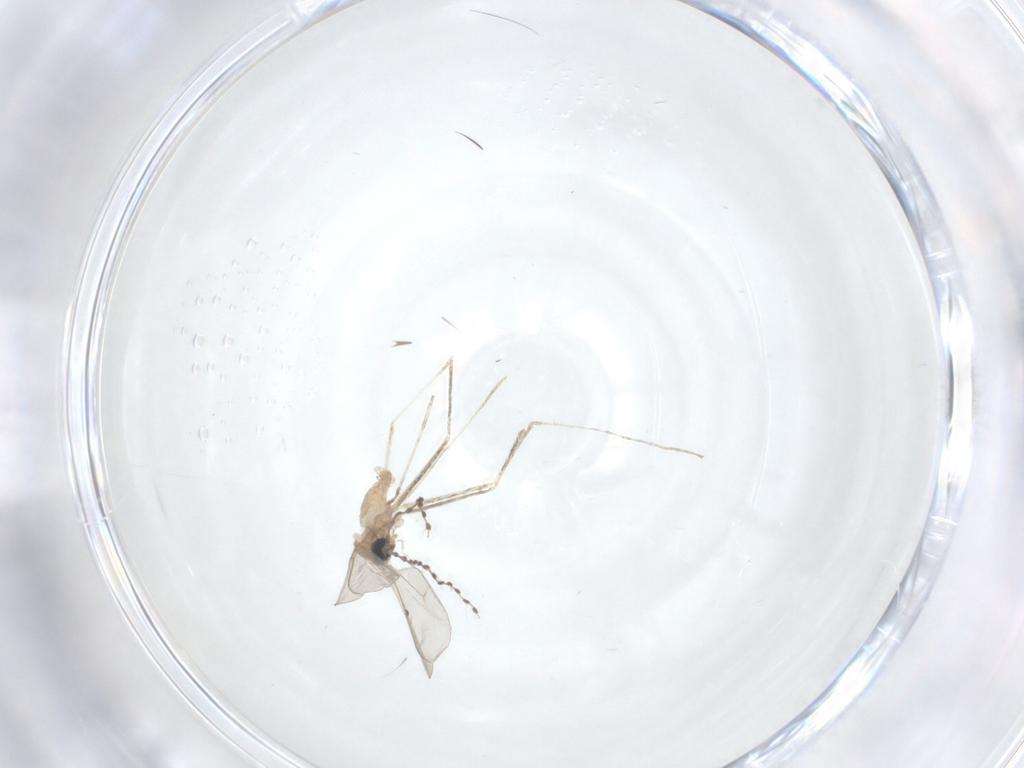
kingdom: Animalia
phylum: Arthropoda
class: Insecta
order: Diptera
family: Cecidomyiidae
